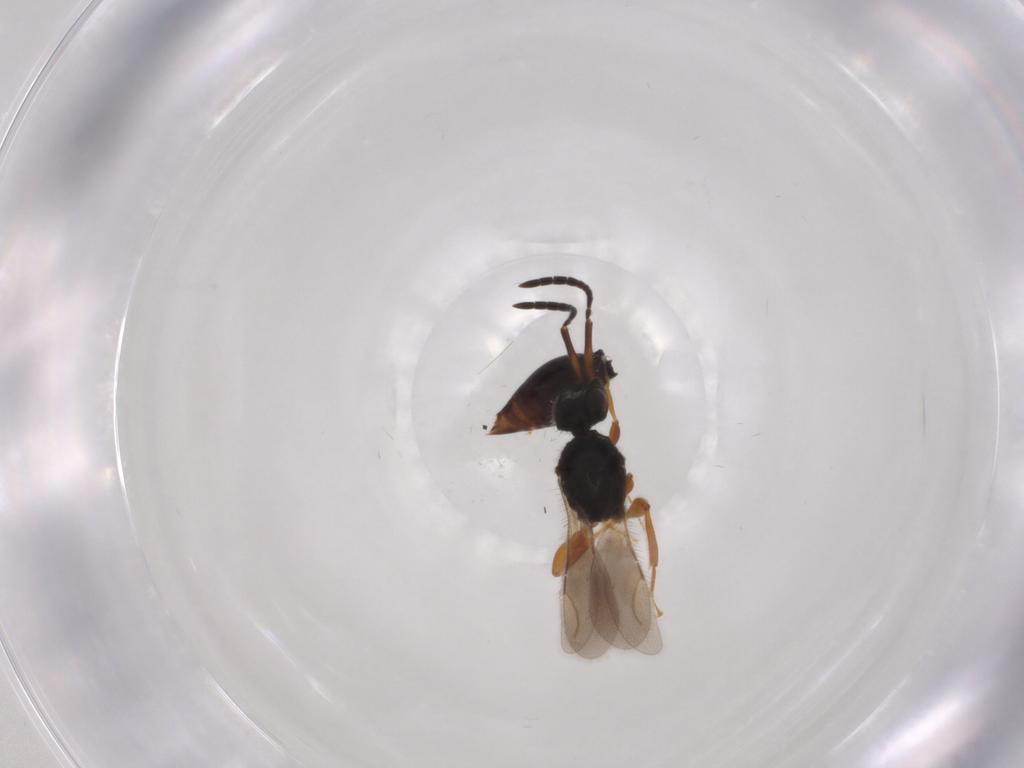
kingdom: Animalia
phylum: Arthropoda
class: Insecta
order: Hymenoptera
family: Ceraphronidae
